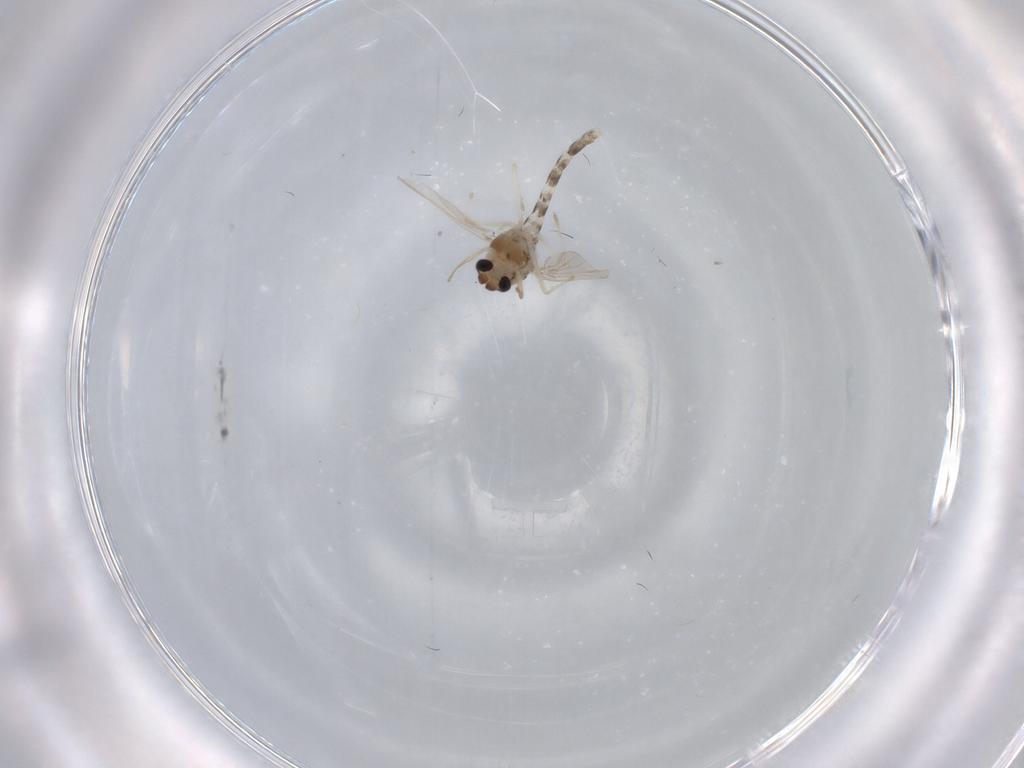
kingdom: Animalia
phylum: Arthropoda
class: Insecta
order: Diptera
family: Chironomidae
